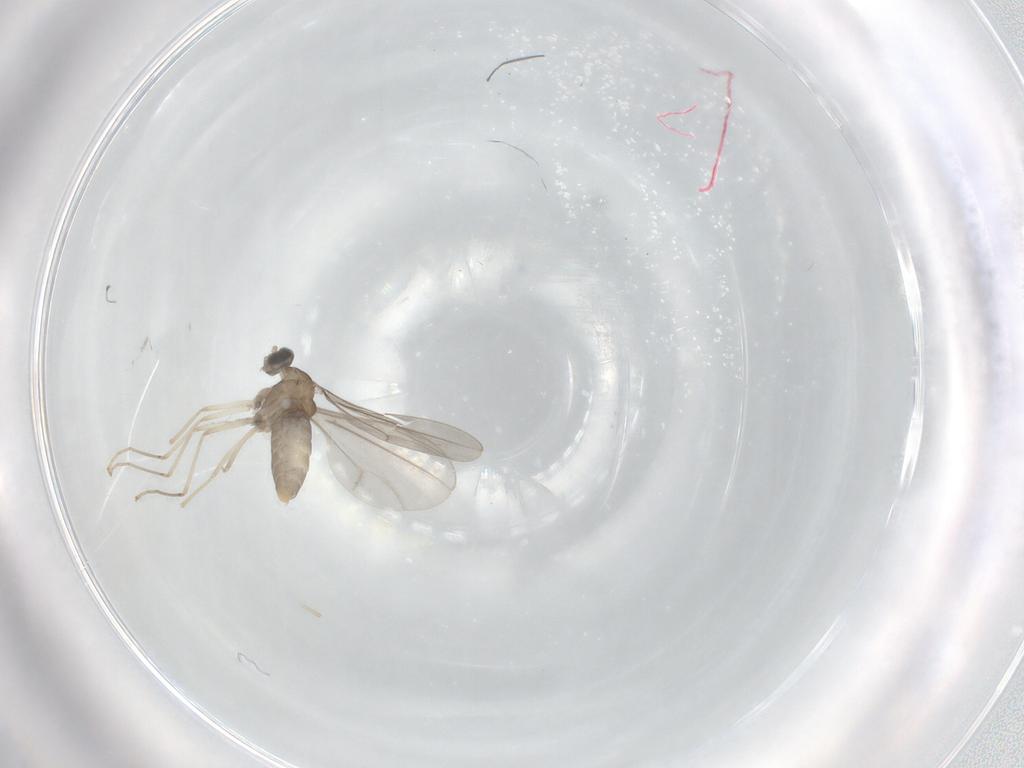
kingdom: Animalia
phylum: Arthropoda
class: Insecta
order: Diptera
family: Cecidomyiidae
